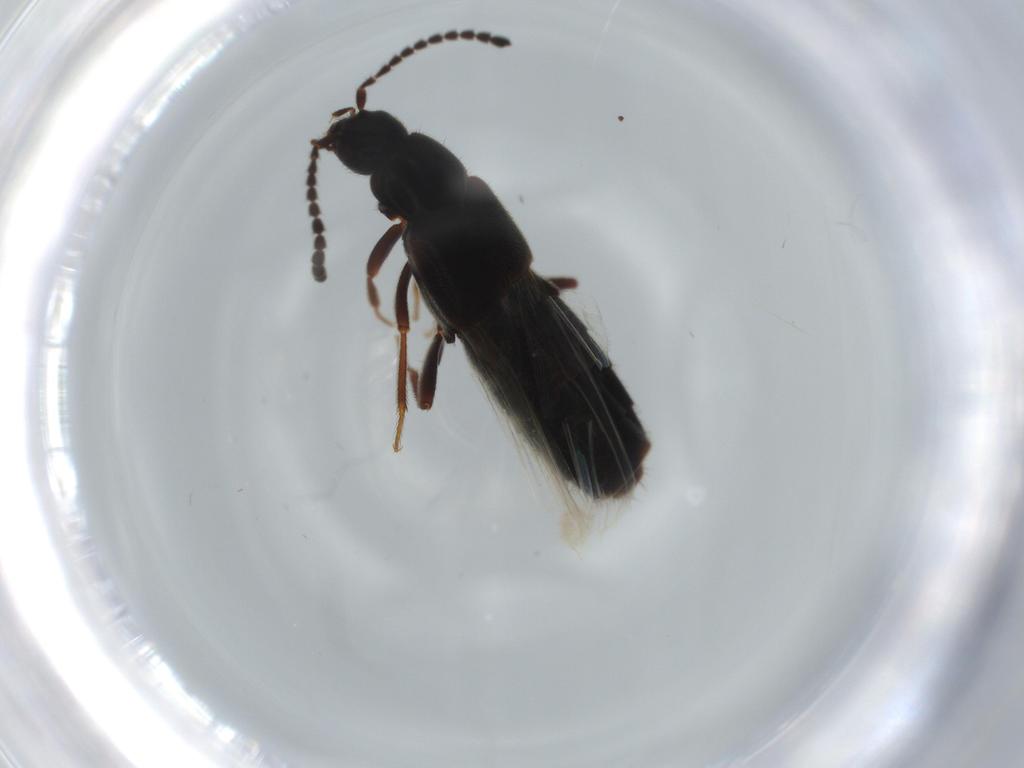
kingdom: Animalia
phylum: Arthropoda
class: Insecta
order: Coleoptera
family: Staphylinidae
